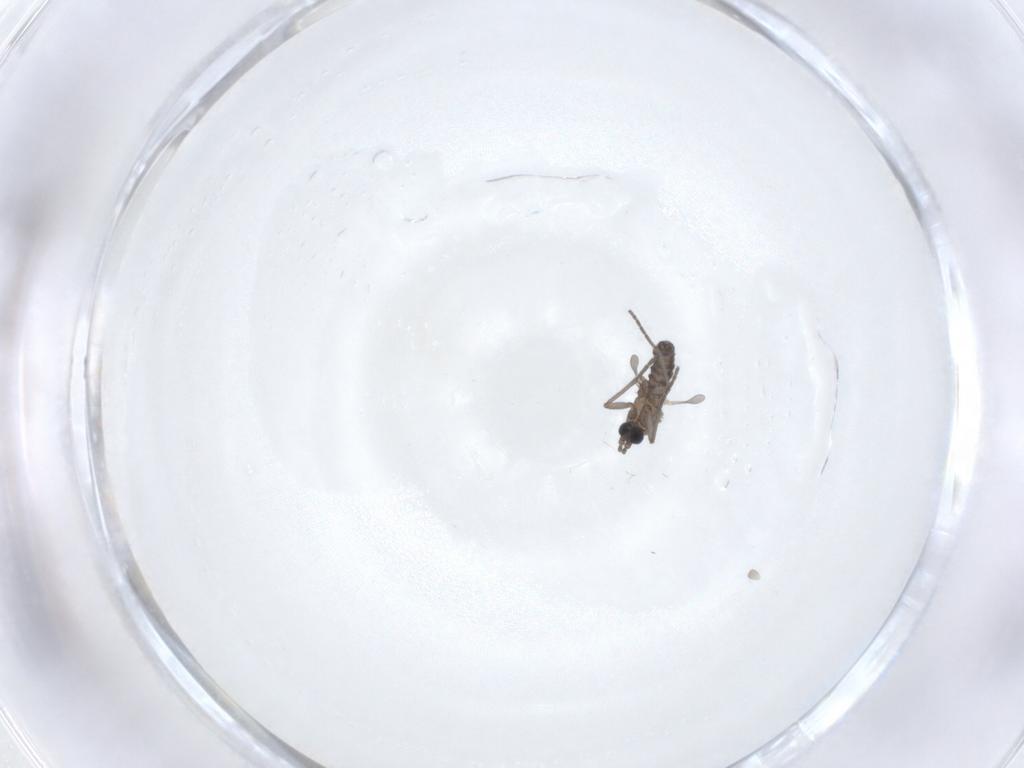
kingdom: Animalia
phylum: Arthropoda
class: Insecta
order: Diptera
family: Sciaridae
